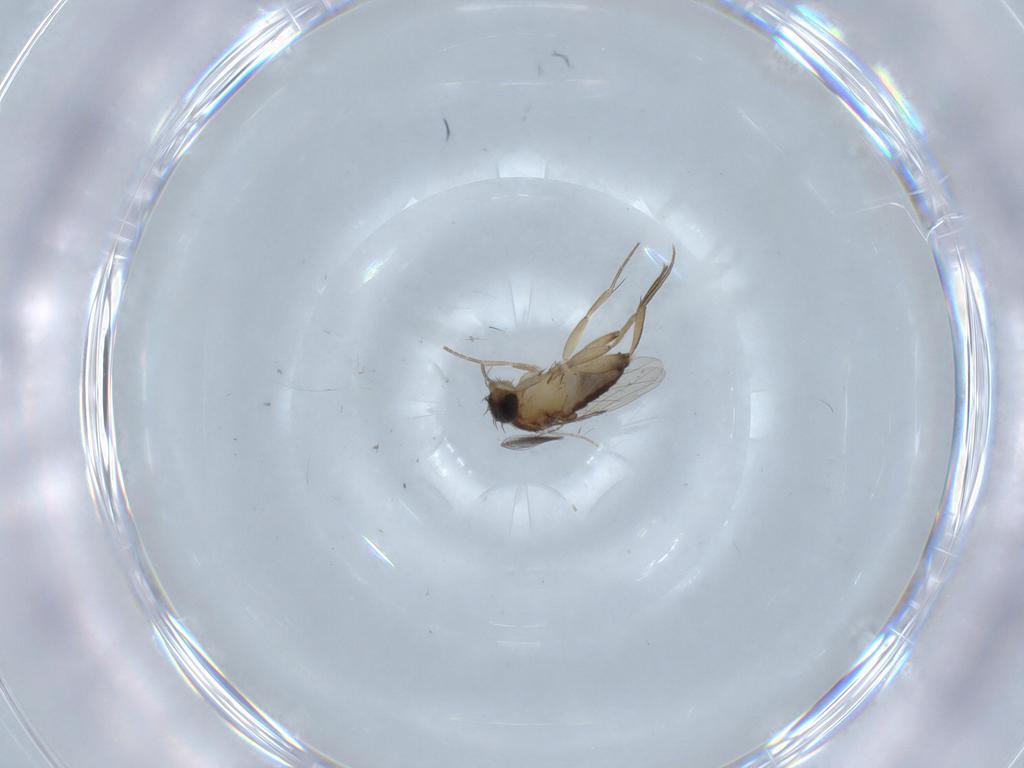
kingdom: Animalia
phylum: Arthropoda
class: Insecta
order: Diptera
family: Phoridae
